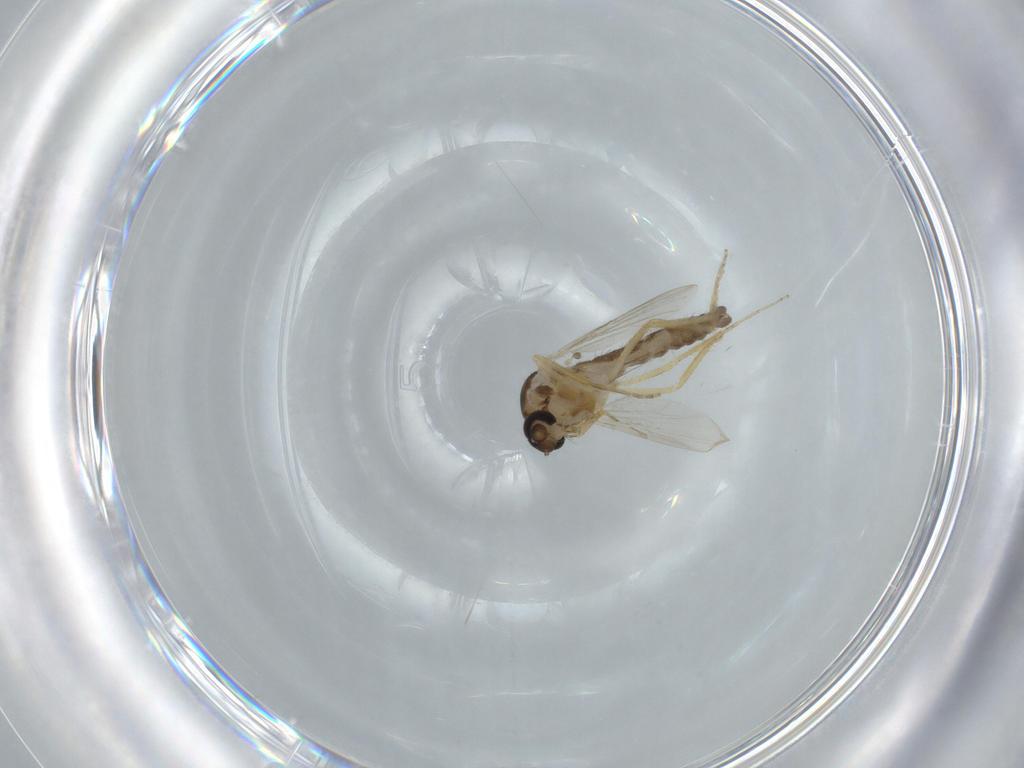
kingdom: Animalia
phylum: Arthropoda
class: Insecta
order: Diptera
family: Ceratopogonidae
